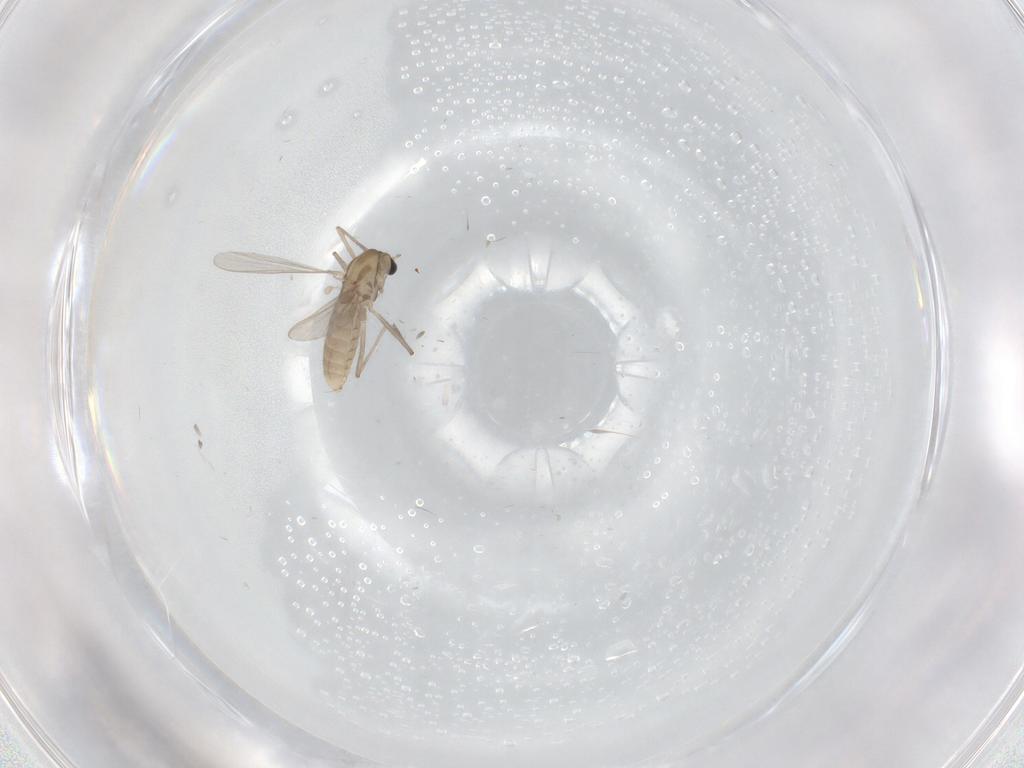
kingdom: Animalia
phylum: Arthropoda
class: Insecta
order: Diptera
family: Chironomidae
